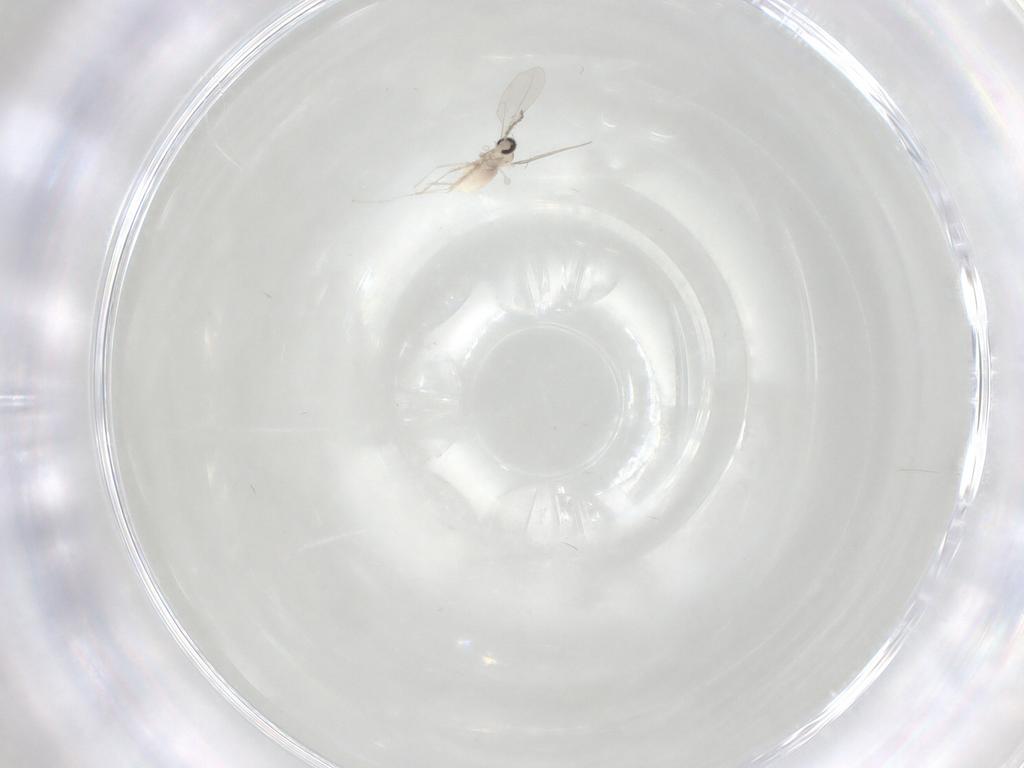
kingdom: Animalia
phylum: Arthropoda
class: Insecta
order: Diptera
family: Cecidomyiidae
